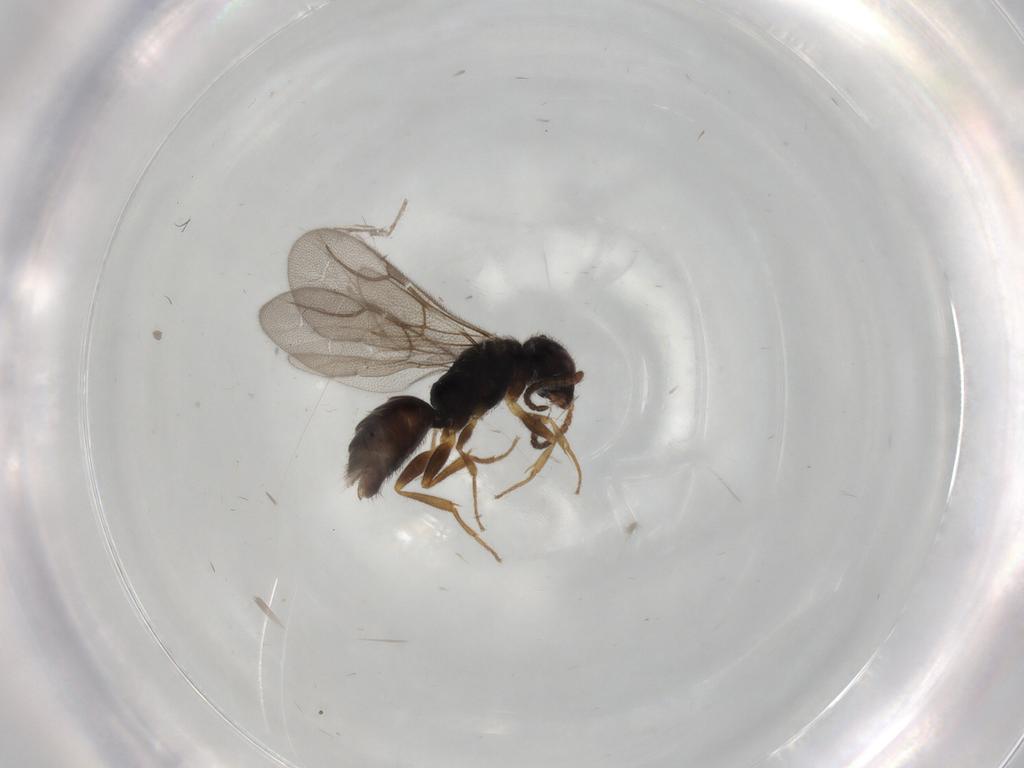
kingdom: Animalia
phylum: Arthropoda
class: Insecta
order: Hymenoptera
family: Bethylidae
